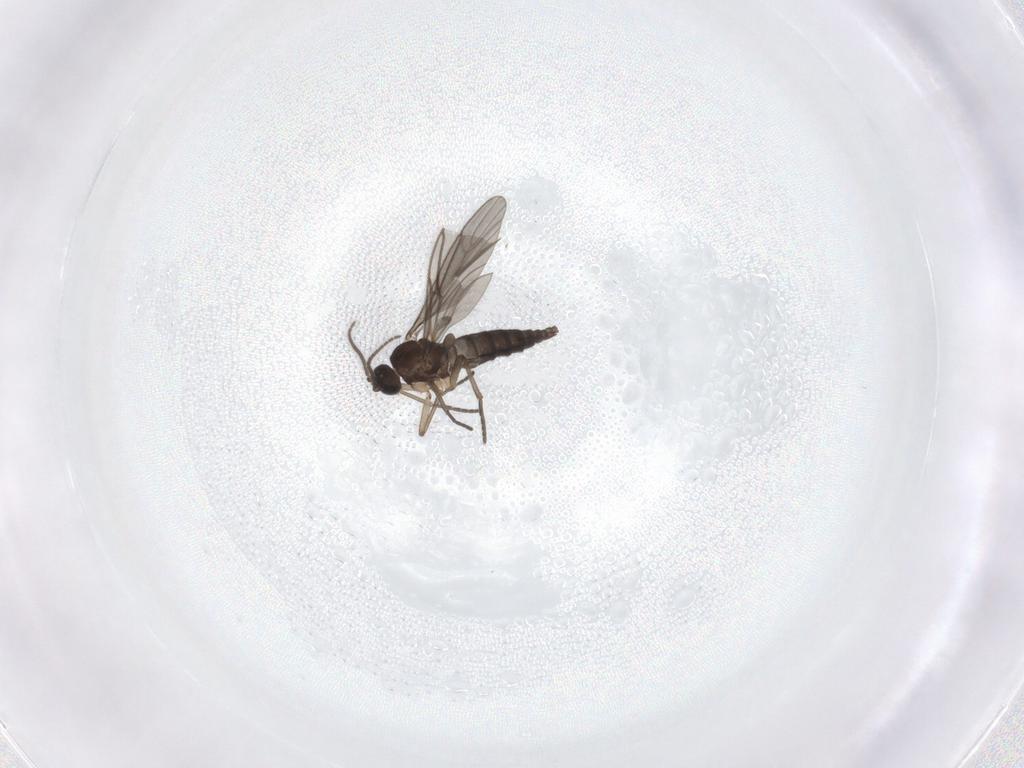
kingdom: Animalia
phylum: Arthropoda
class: Insecta
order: Diptera
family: Sciaridae
